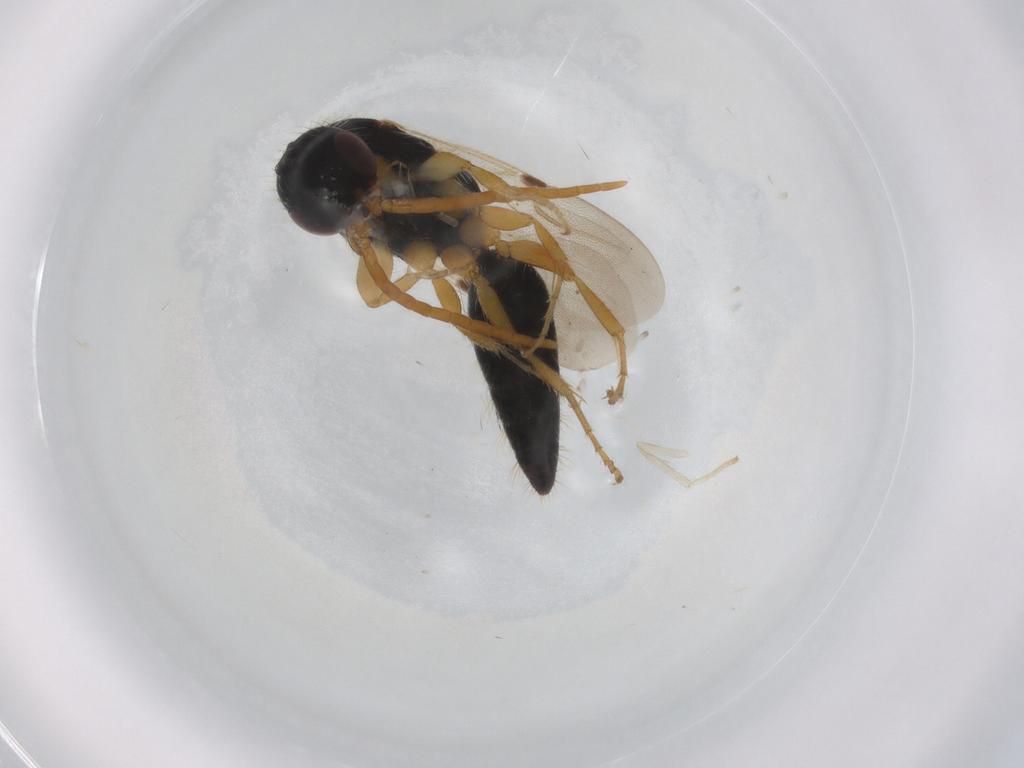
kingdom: Animalia
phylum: Arthropoda
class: Insecta
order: Hymenoptera
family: Bethylidae
